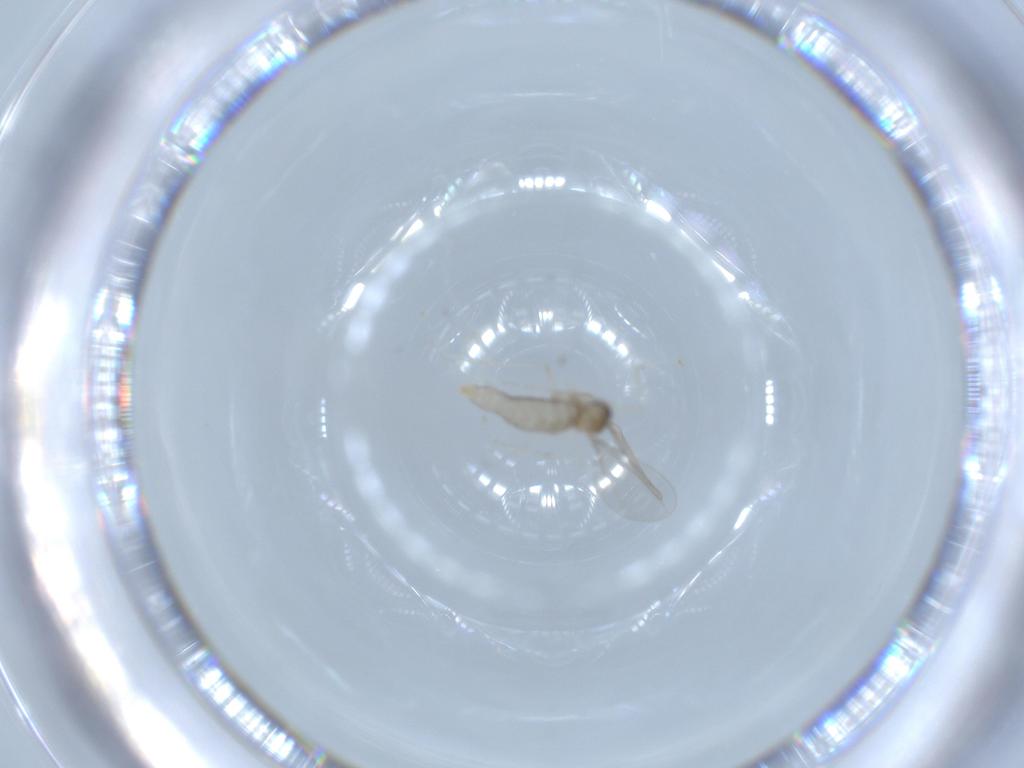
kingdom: Animalia
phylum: Arthropoda
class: Insecta
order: Diptera
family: Cecidomyiidae
